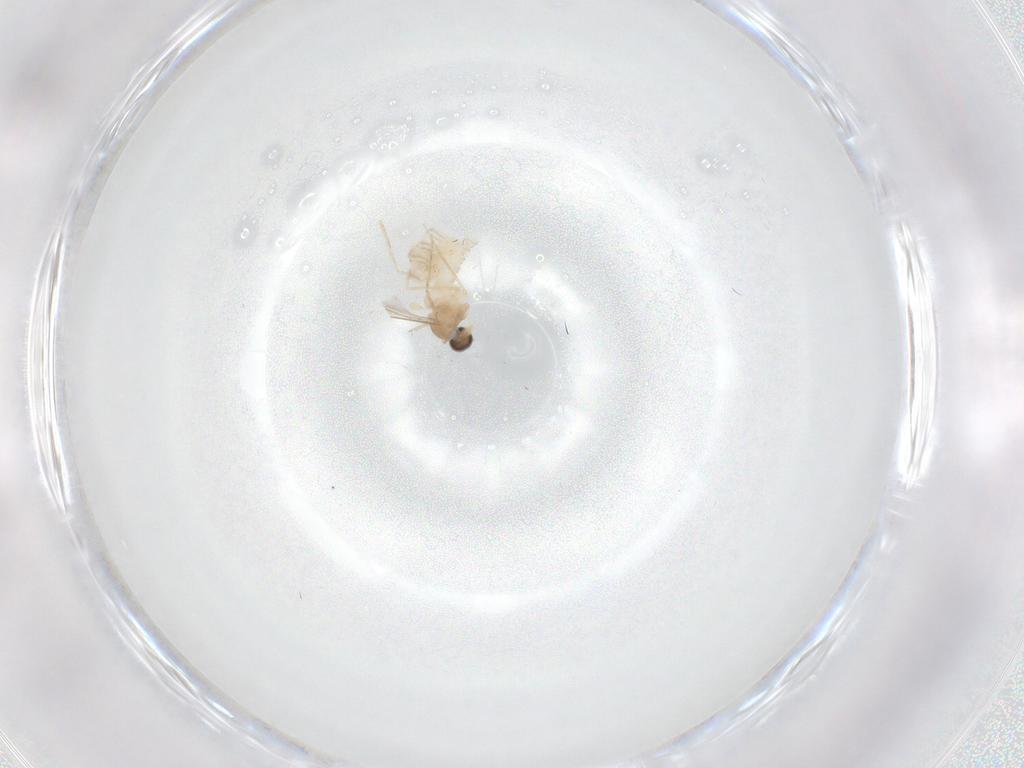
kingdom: Animalia
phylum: Arthropoda
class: Insecta
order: Diptera
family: Cecidomyiidae
